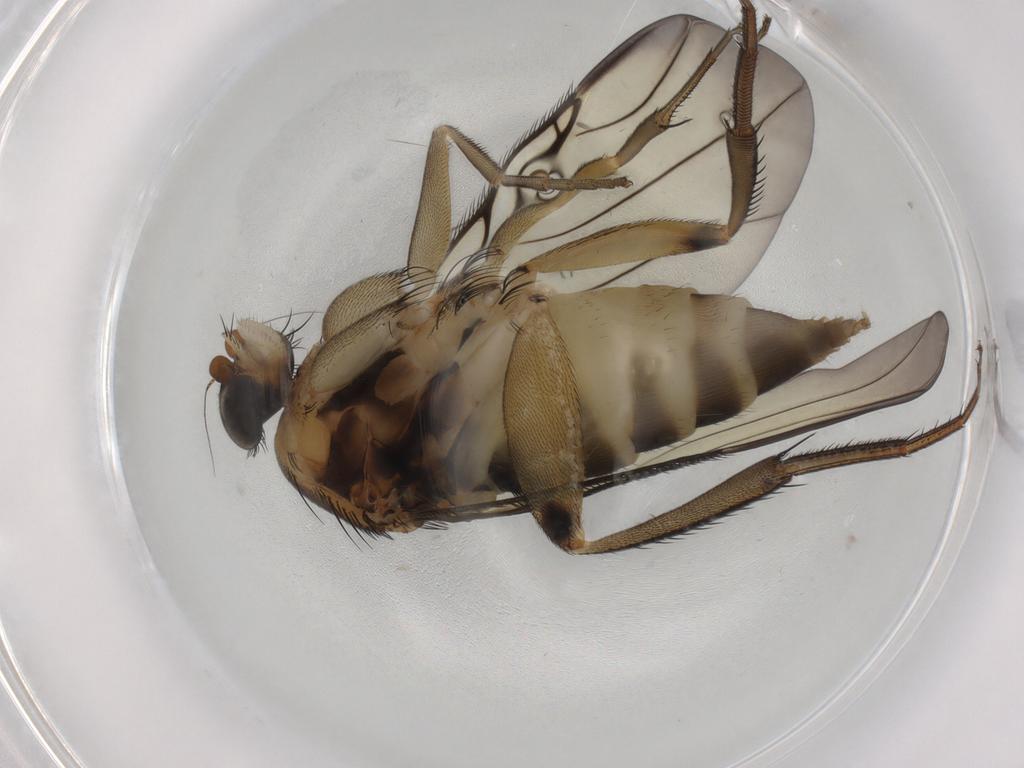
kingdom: Animalia
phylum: Arthropoda
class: Insecta
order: Diptera
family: Phoridae
